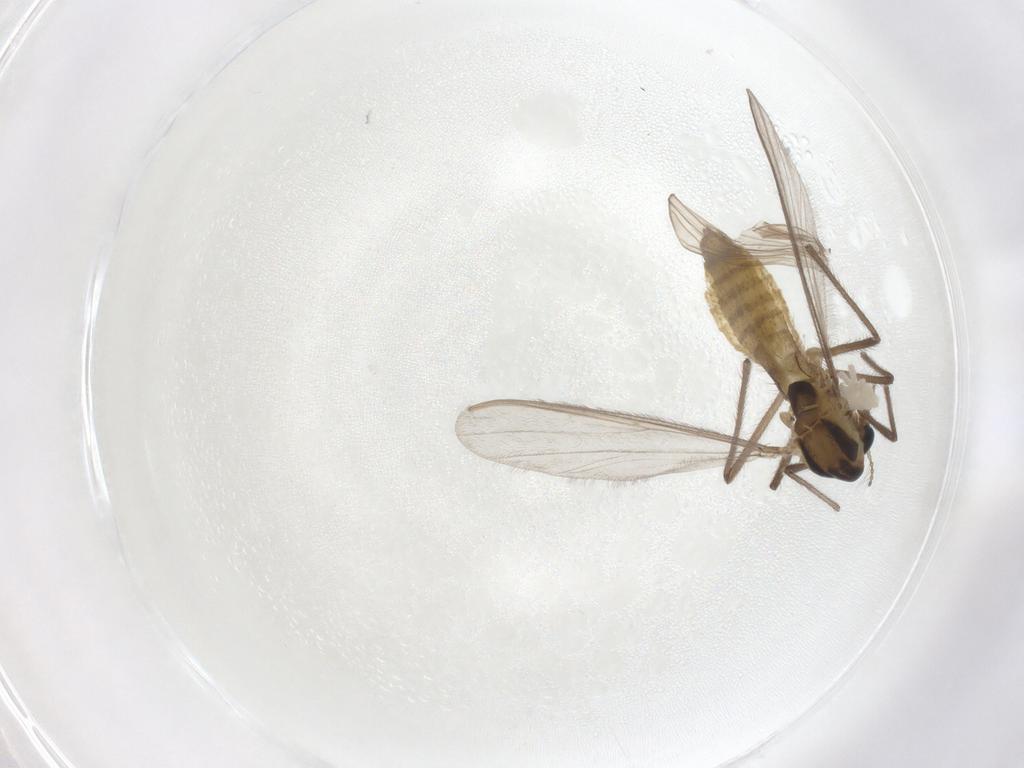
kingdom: Animalia
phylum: Arthropoda
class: Insecta
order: Diptera
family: Chironomidae
